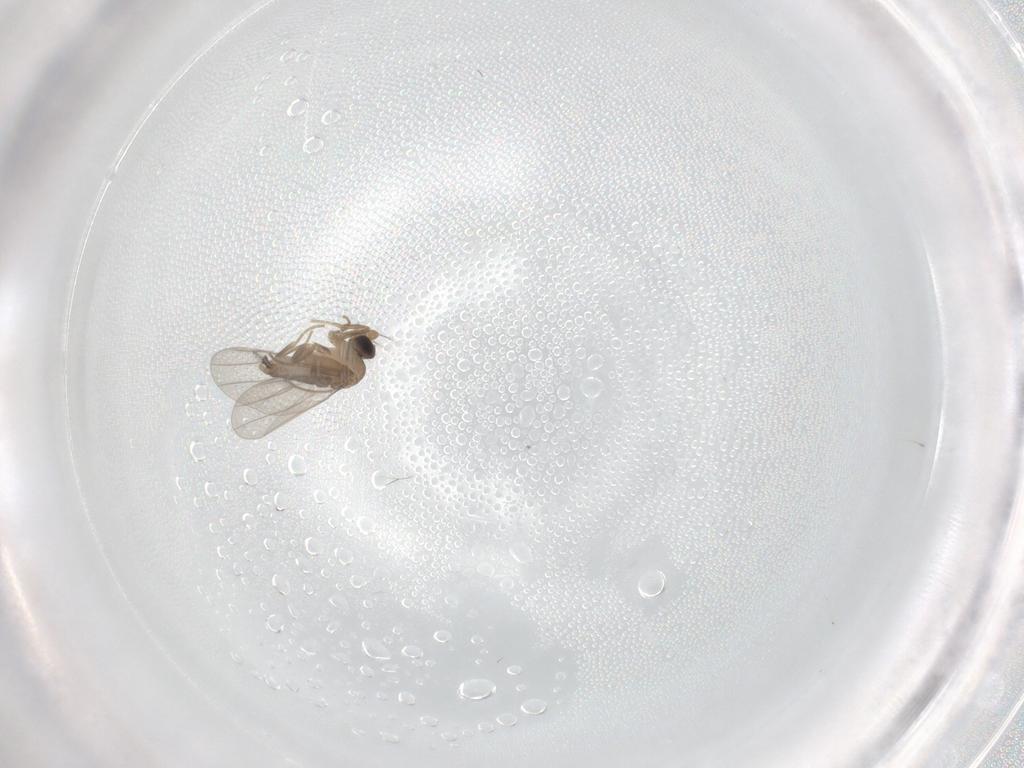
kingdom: Animalia
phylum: Arthropoda
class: Insecta
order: Diptera
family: Cecidomyiidae
